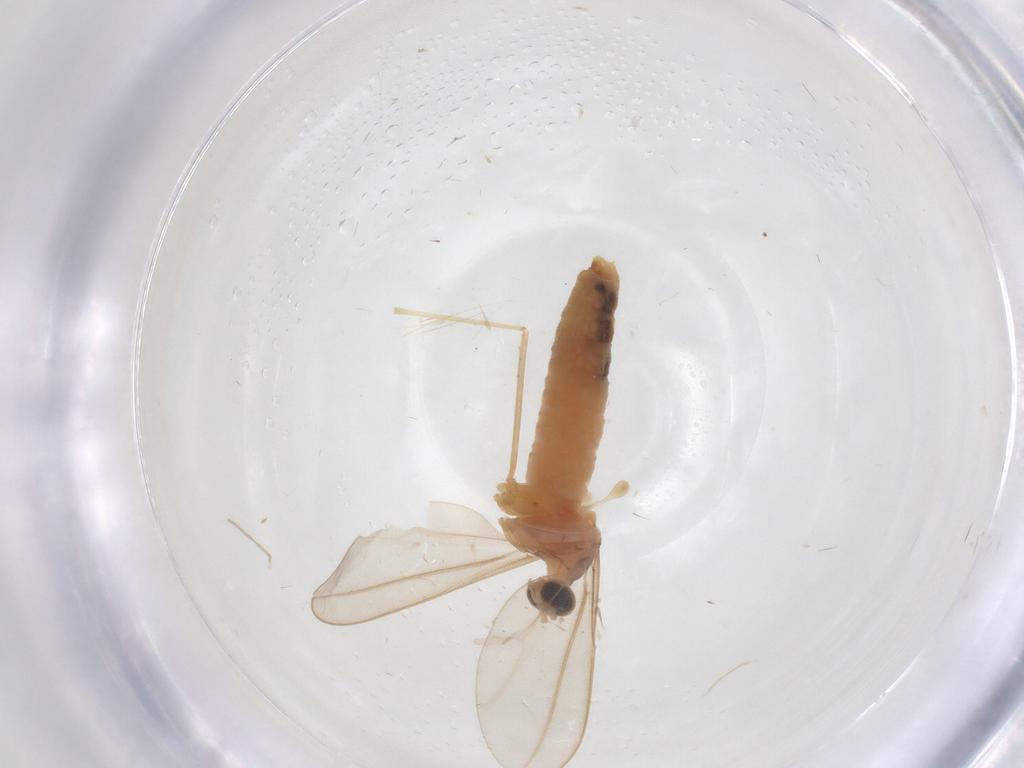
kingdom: Animalia
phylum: Arthropoda
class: Insecta
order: Diptera
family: Cecidomyiidae
